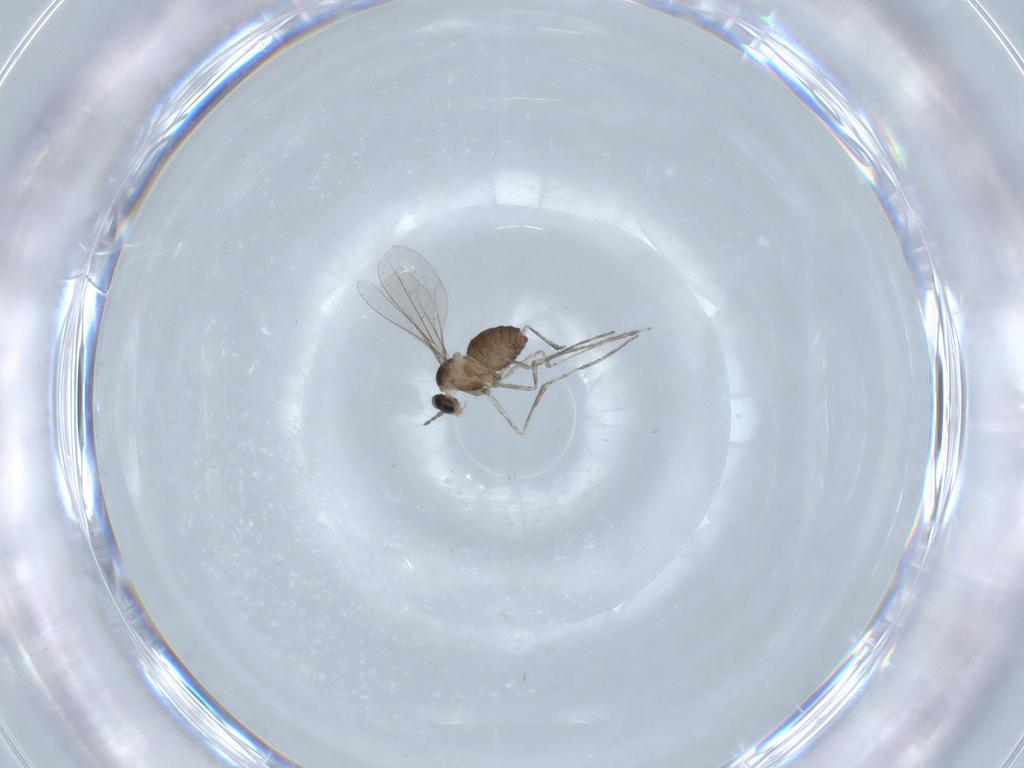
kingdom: Animalia
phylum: Arthropoda
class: Insecta
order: Diptera
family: Cecidomyiidae
